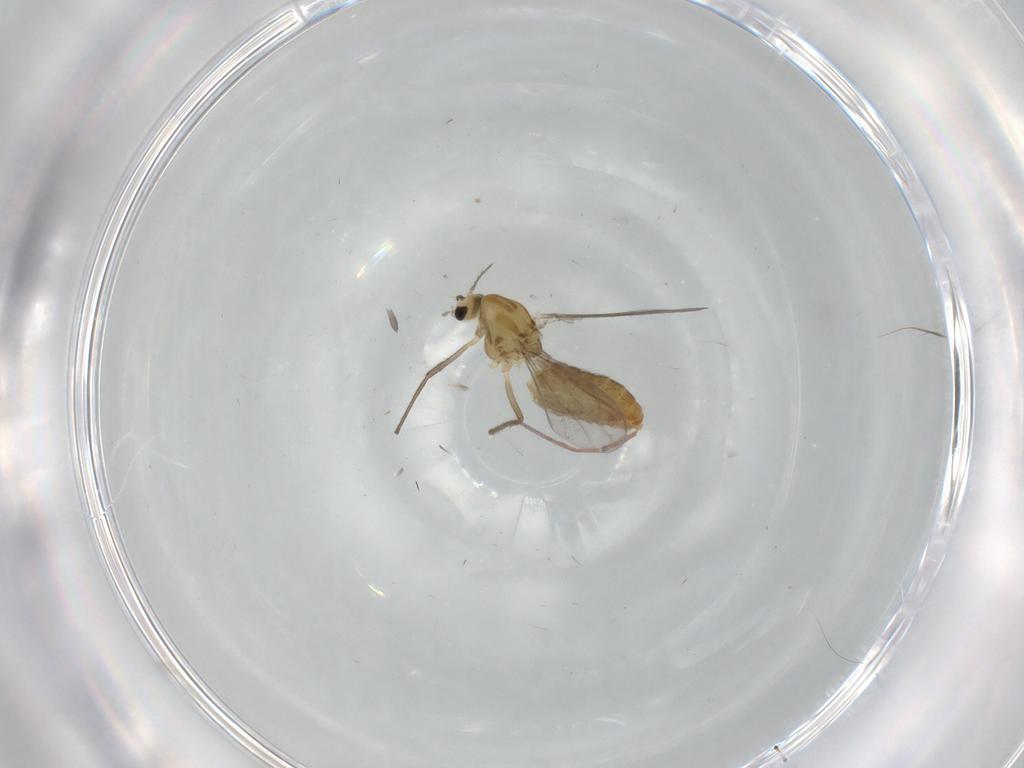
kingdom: Animalia
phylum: Arthropoda
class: Insecta
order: Diptera
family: Chironomidae
